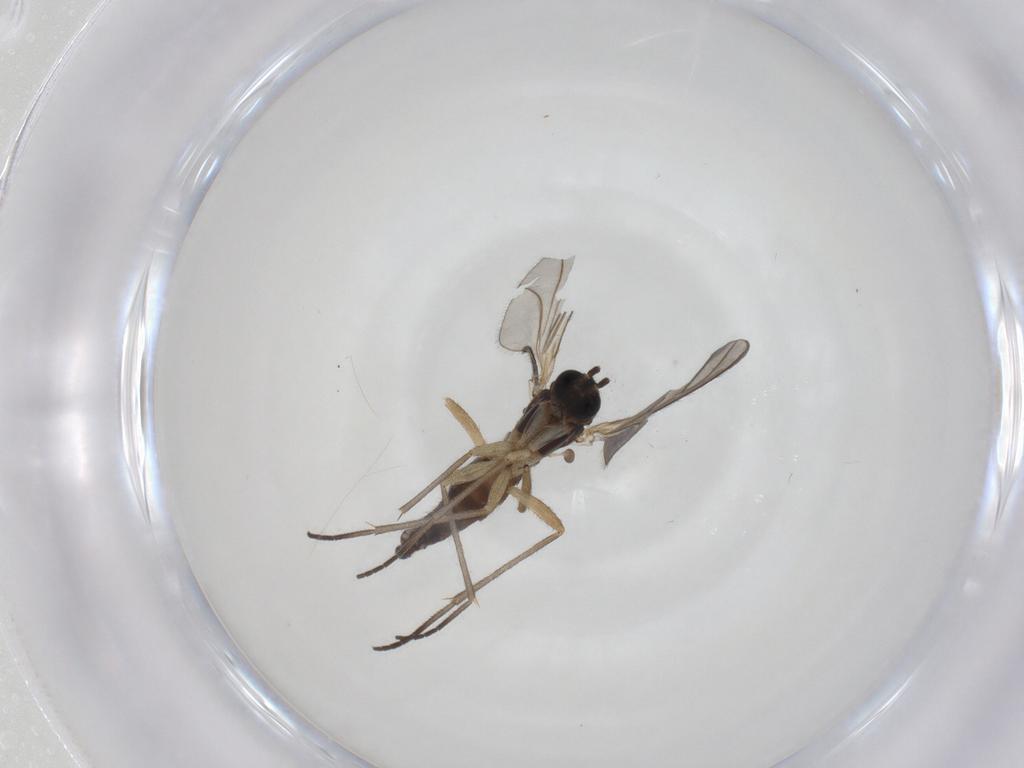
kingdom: Animalia
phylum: Arthropoda
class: Insecta
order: Diptera
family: Sciaridae
